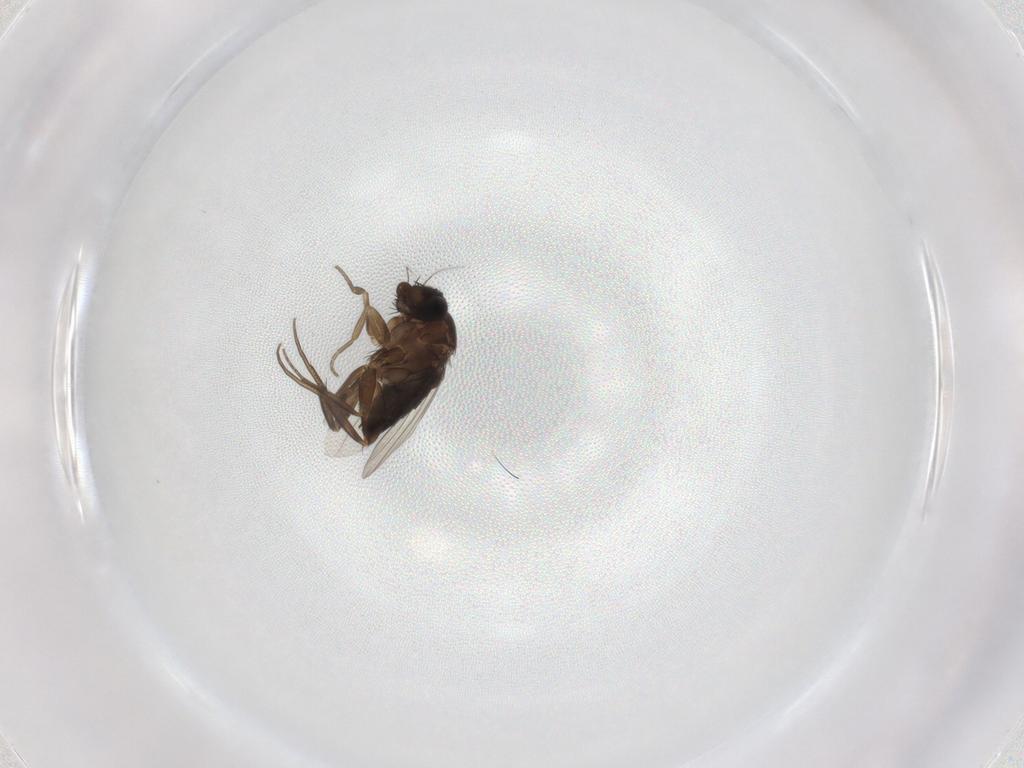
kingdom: Animalia
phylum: Arthropoda
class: Insecta
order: Diptera
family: Phoridae
